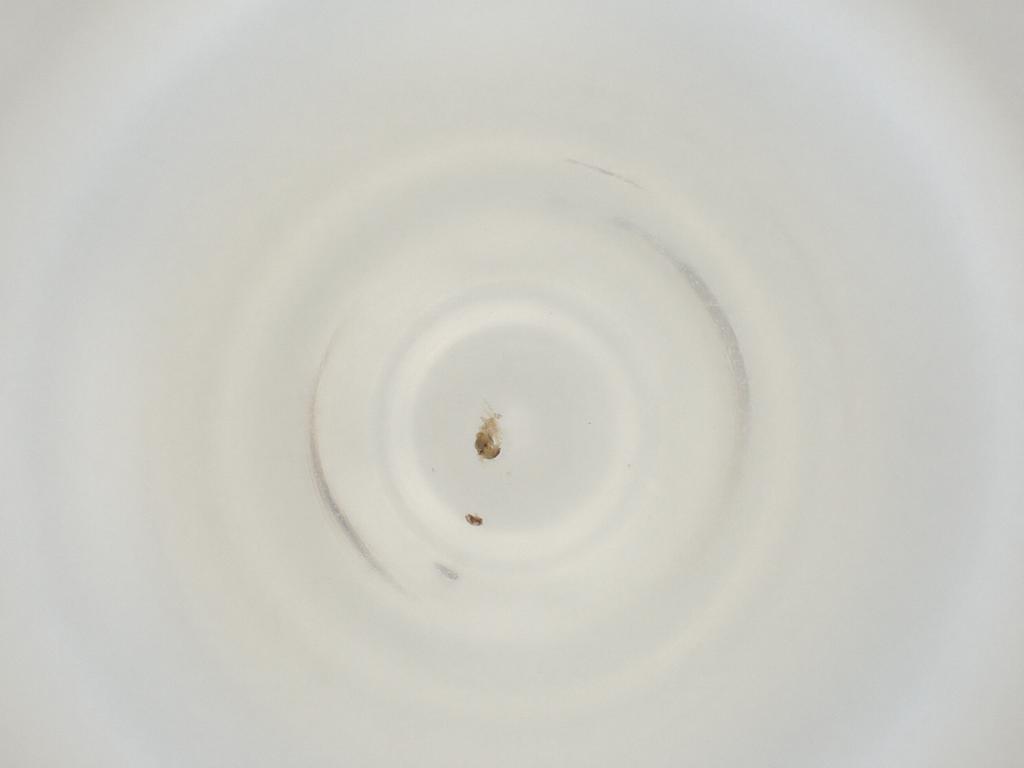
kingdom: Animalia
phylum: Arthropoda
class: Insecta
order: Diptera
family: Cecidomyiidae
